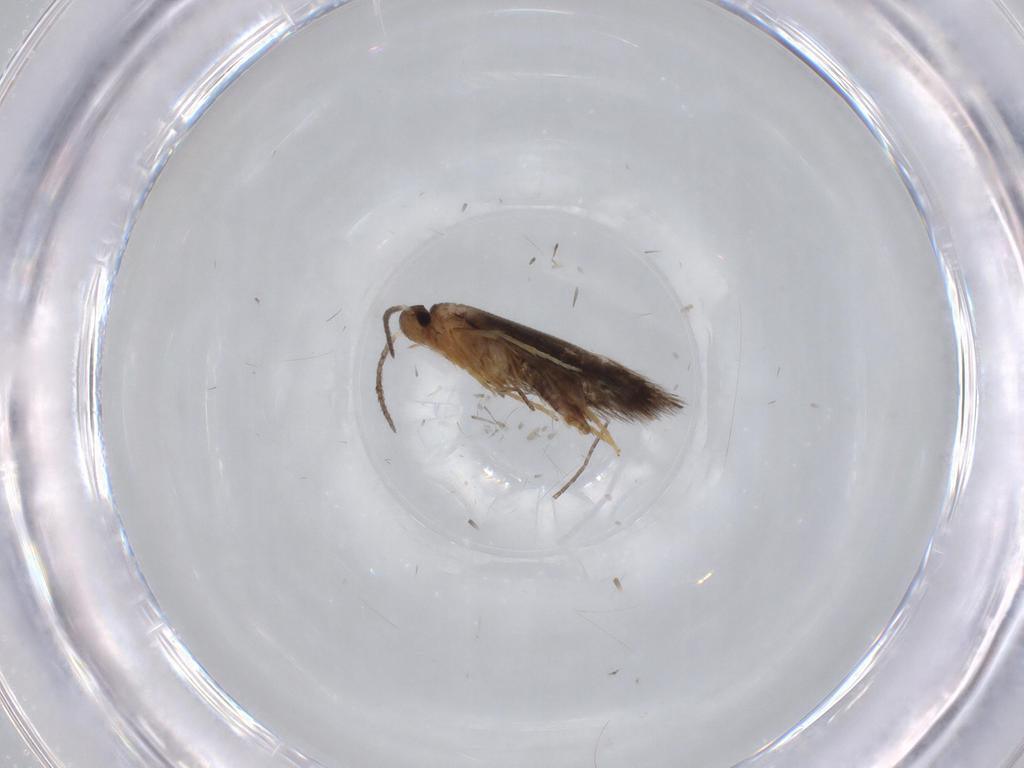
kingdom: Animalia
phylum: Arthropoda
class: Insecta
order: Lepidoptera
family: Heliozelidae
